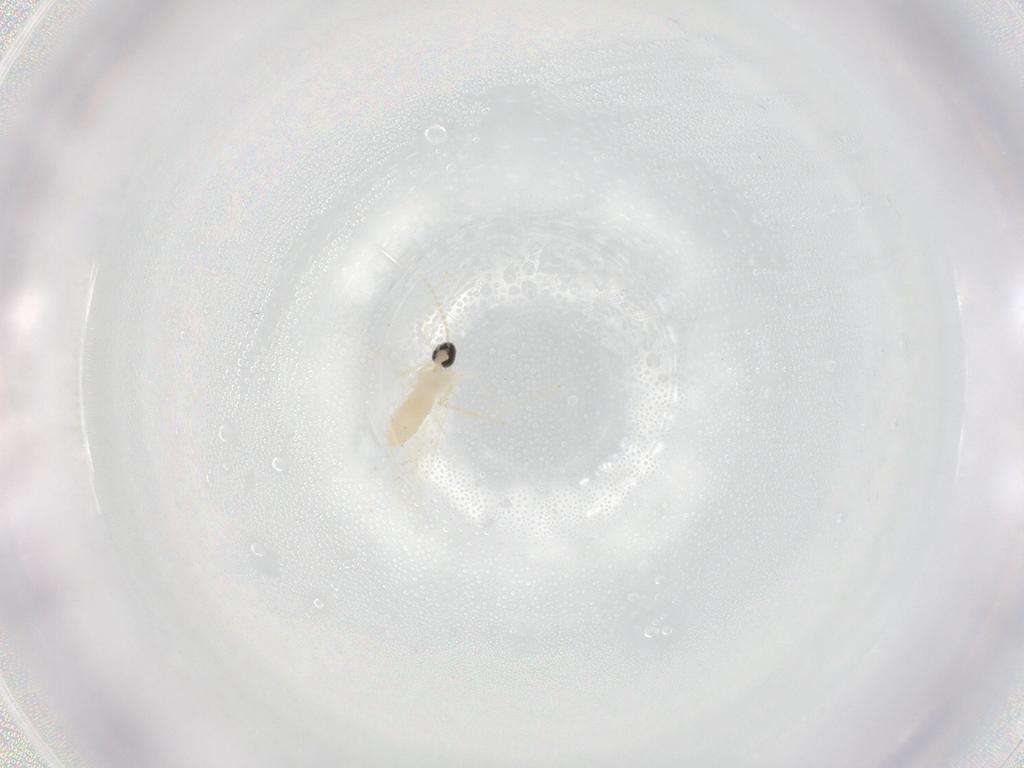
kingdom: Animalia
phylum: Arthropoda
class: Insecta
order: Diptera
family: Cecidomyiidae
